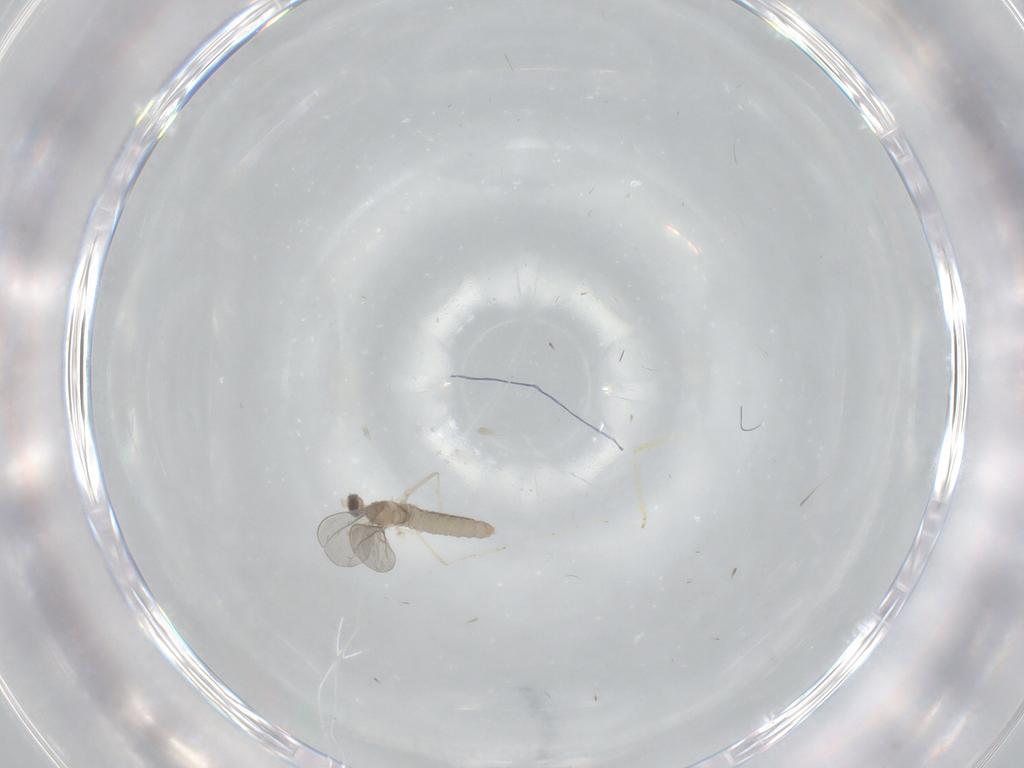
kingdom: Animalia
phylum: Arthropoda
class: Insecta
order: Diptera
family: Cecidomyiidae
